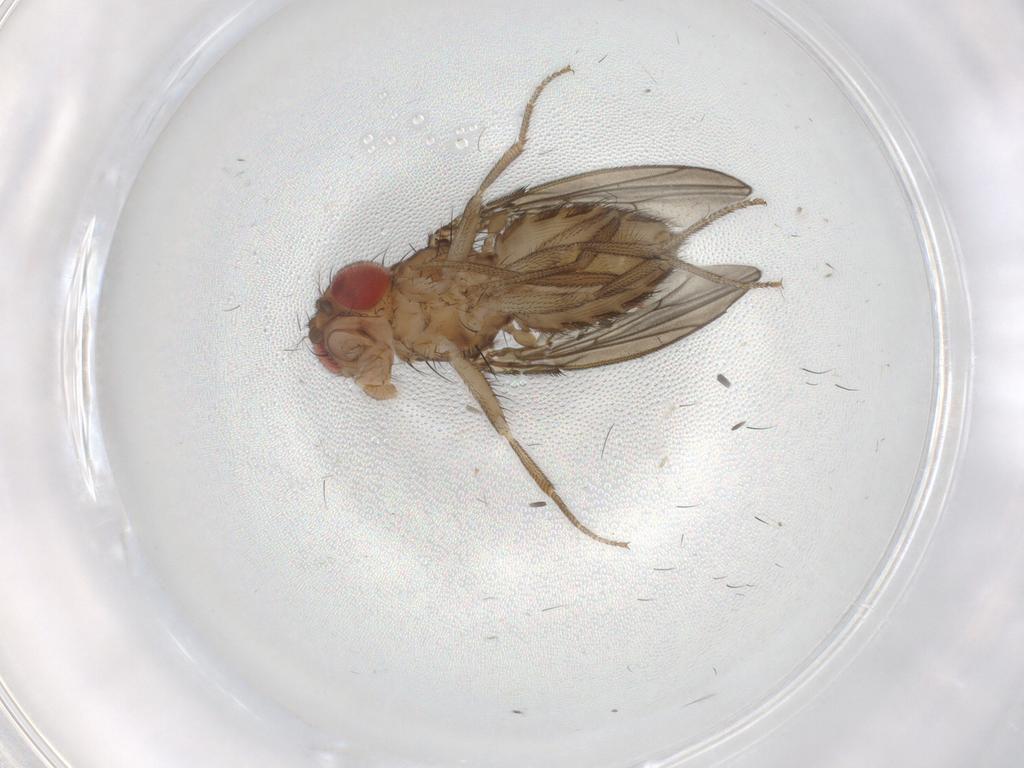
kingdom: Animalia
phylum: Arthropoda
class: Insecta
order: Diptera
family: Drosophilidae
